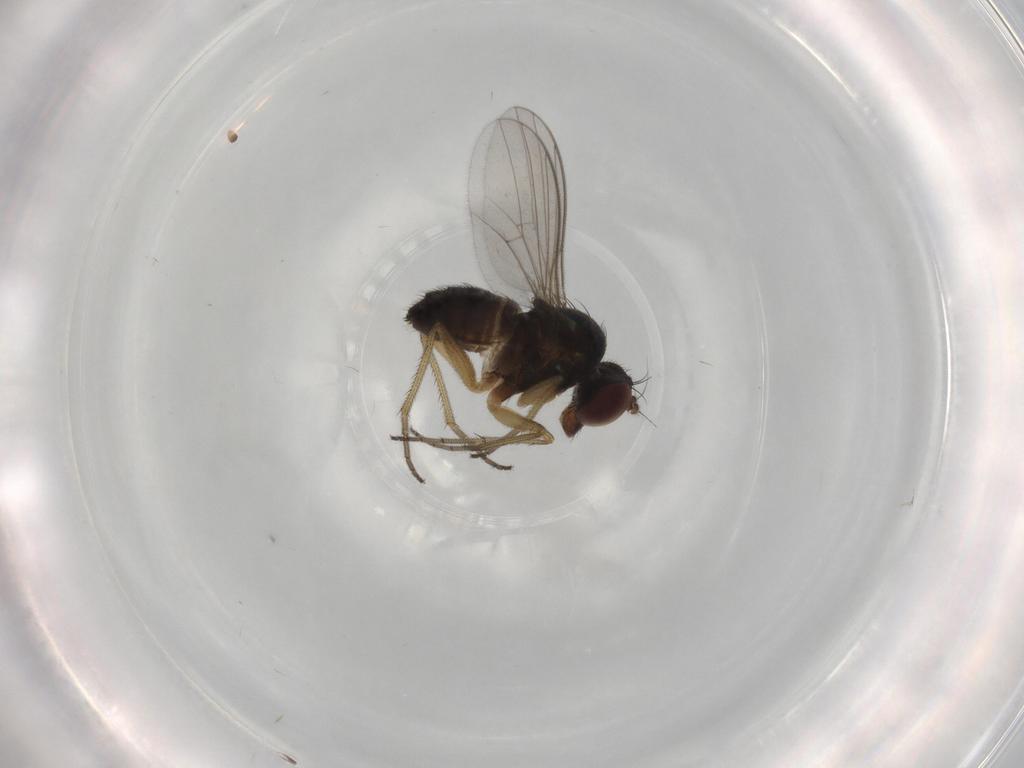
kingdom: Animalia
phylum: Arthropoda
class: Insecta
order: Diptera
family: Dolichopodidae
